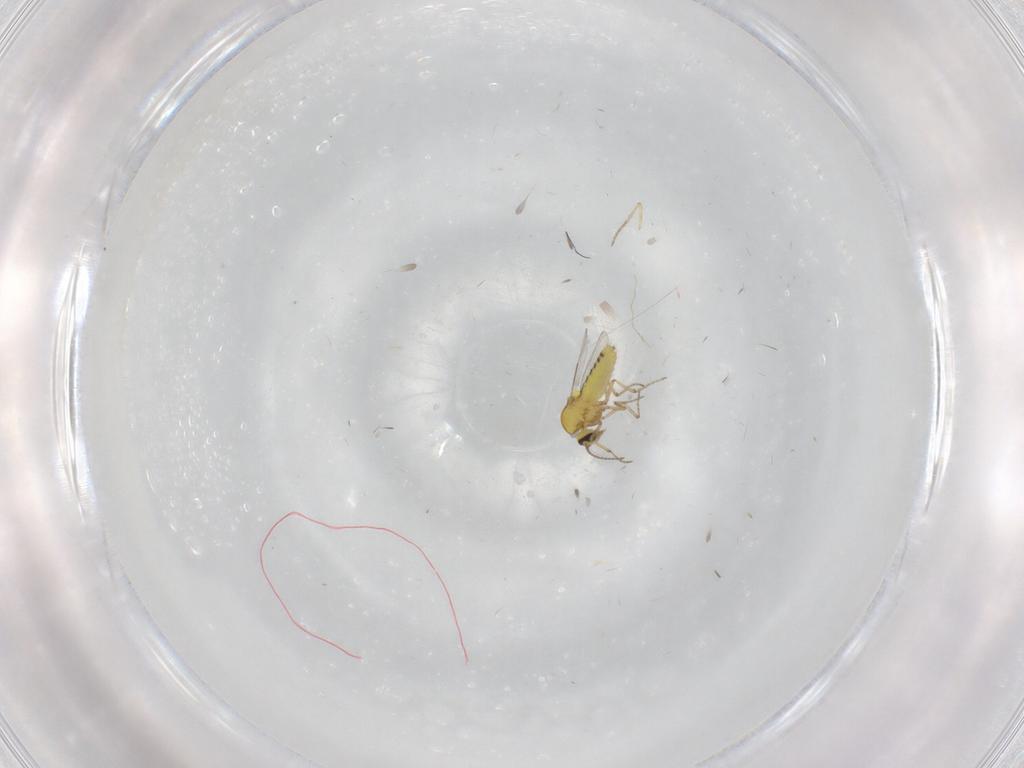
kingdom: Animalia
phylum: Arthropoda
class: Insecta
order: Diptera
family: Ceratopogonidae
